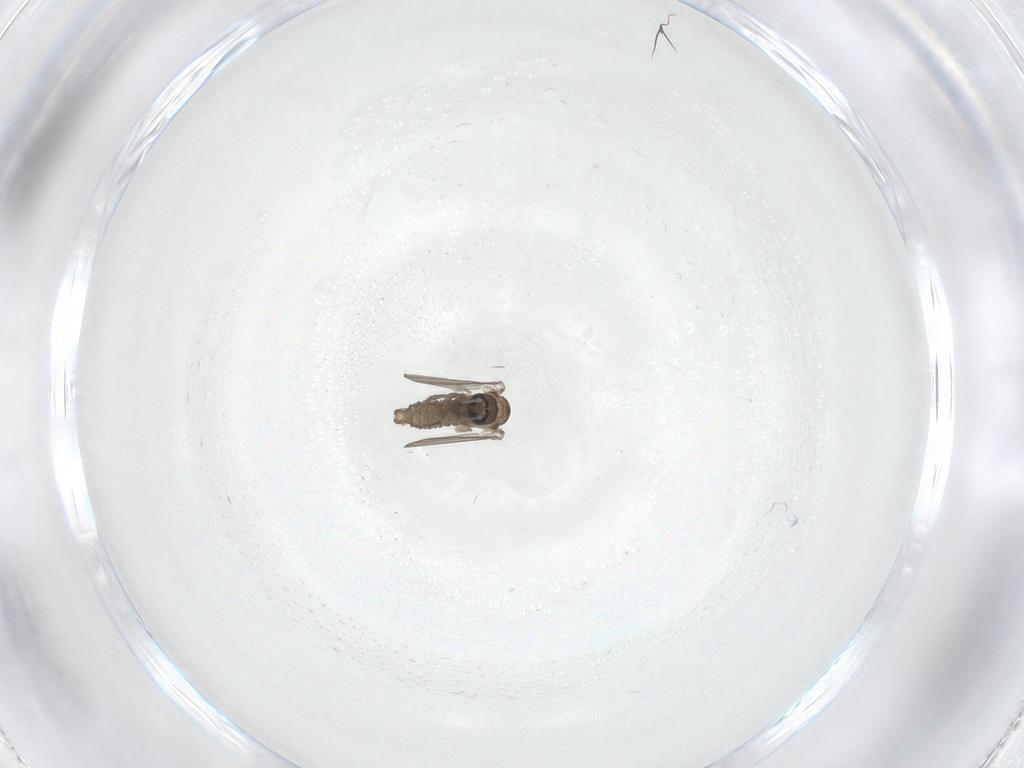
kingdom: Animalia
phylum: Arthropoda
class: Insecta
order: Diptera
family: Psychodidae
